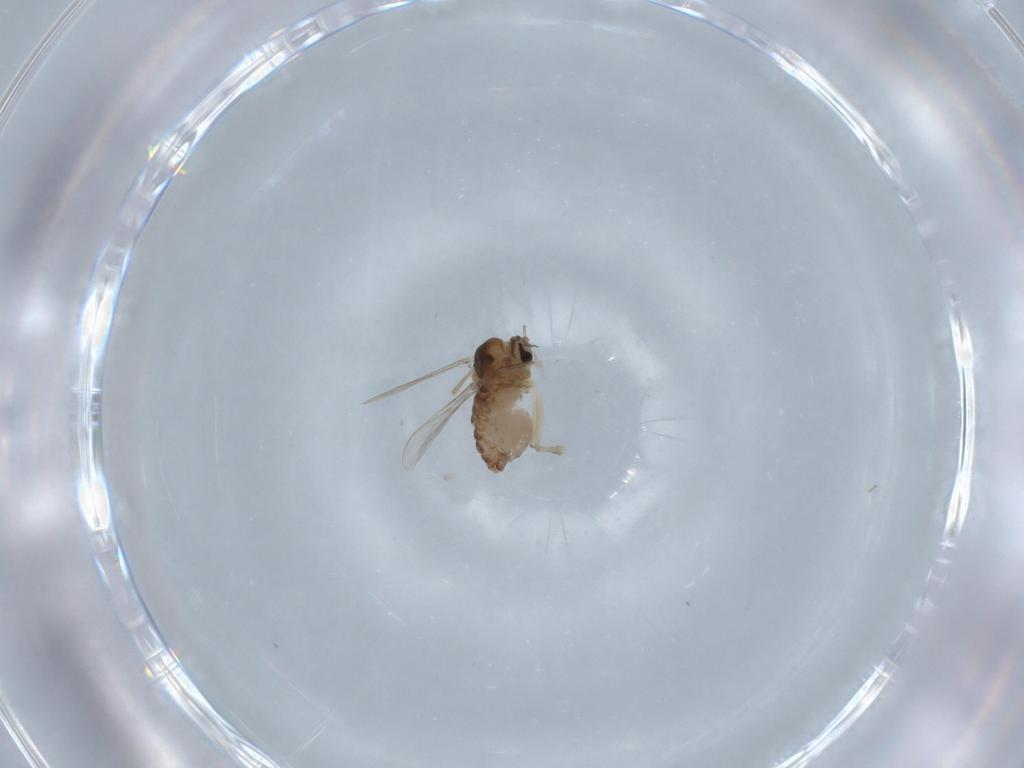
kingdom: Animalia
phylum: Arthropoda
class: Insecta
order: Diptera
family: Chironomidae
